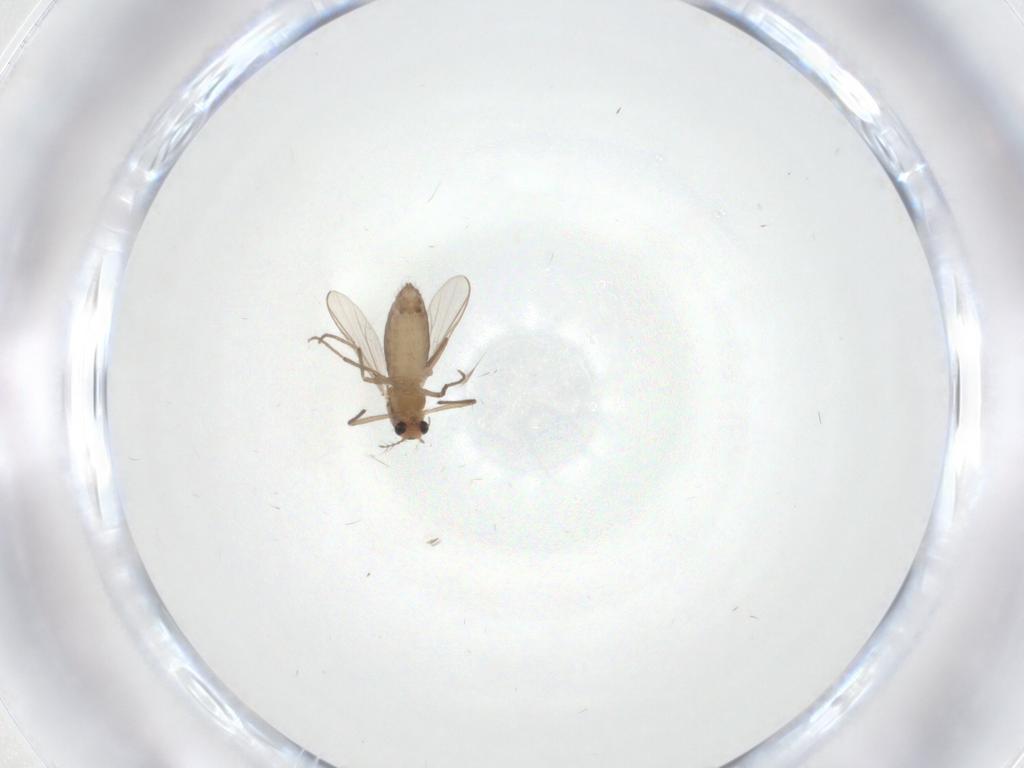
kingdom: Animalia
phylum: Arthropoda
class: Insecta
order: Diptera
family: Chironomidae
